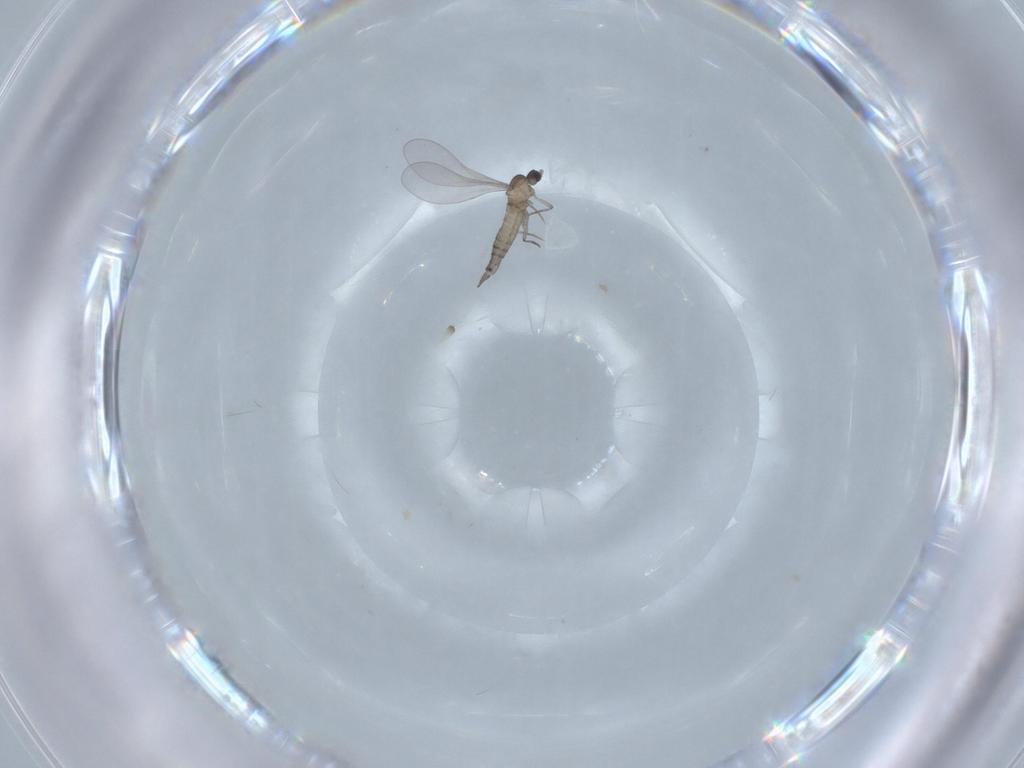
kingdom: Animalia
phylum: Arthropoda
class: Insecta
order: Diptera
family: Cecidomyiidae
